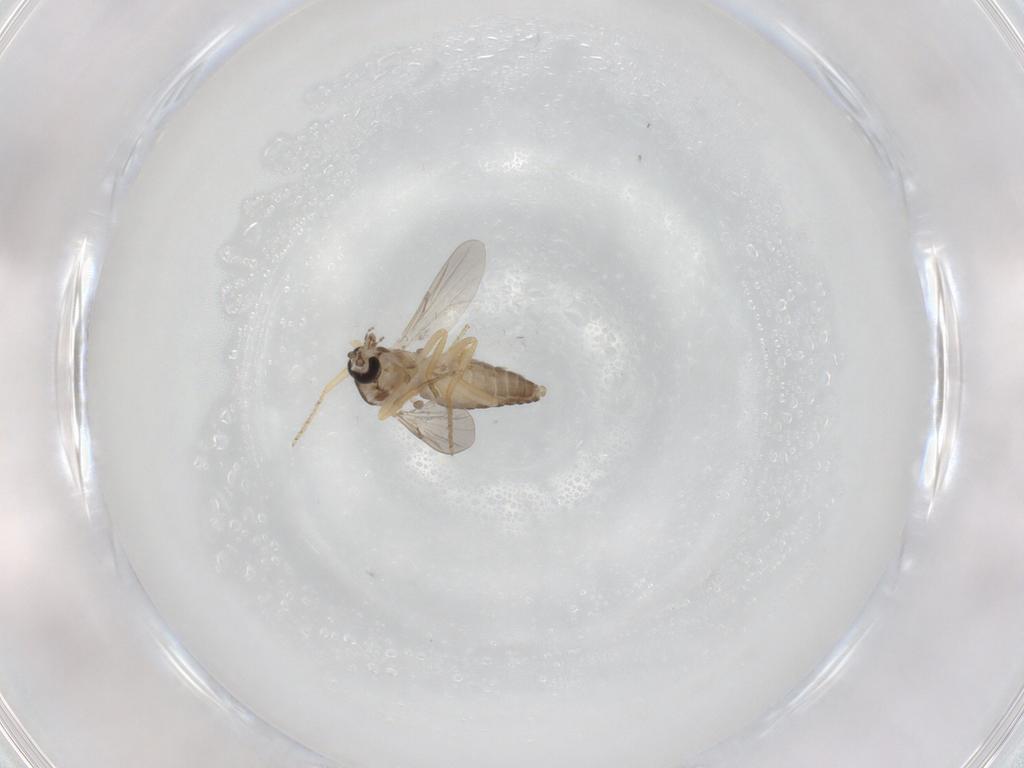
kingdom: Animalia
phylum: Arthropoda
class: Insecta
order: Diptera
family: Ceratopogonidae
